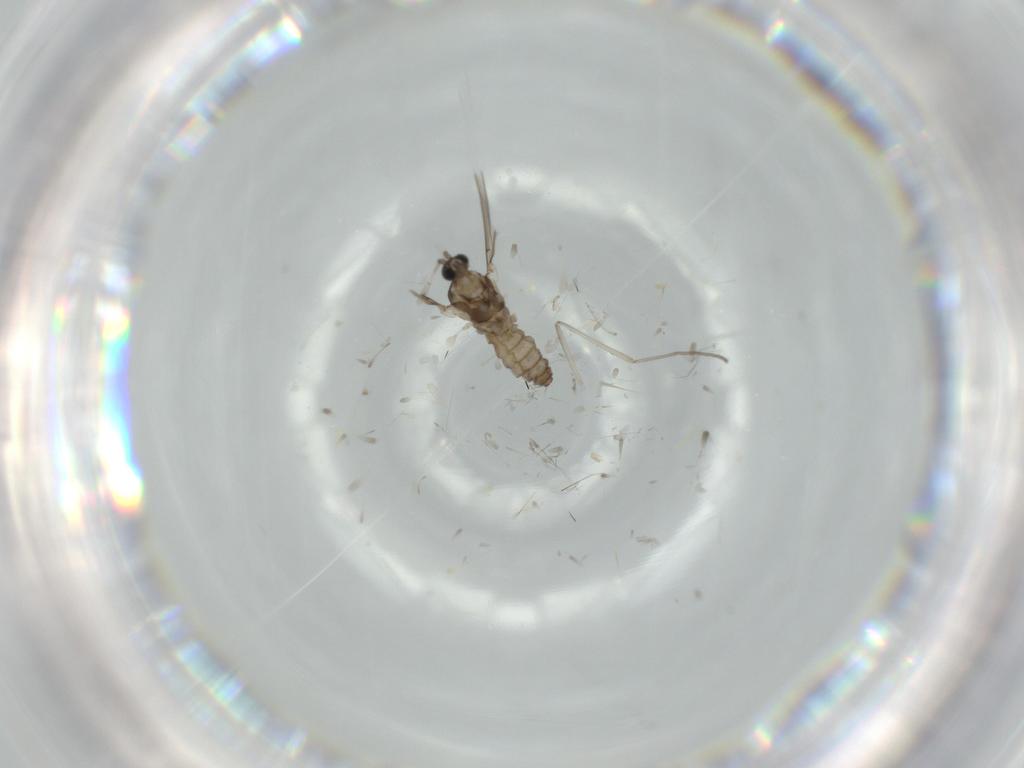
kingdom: Animalia
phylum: Arthropoda
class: Insecta
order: Diptera
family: Cecidomyiidae
